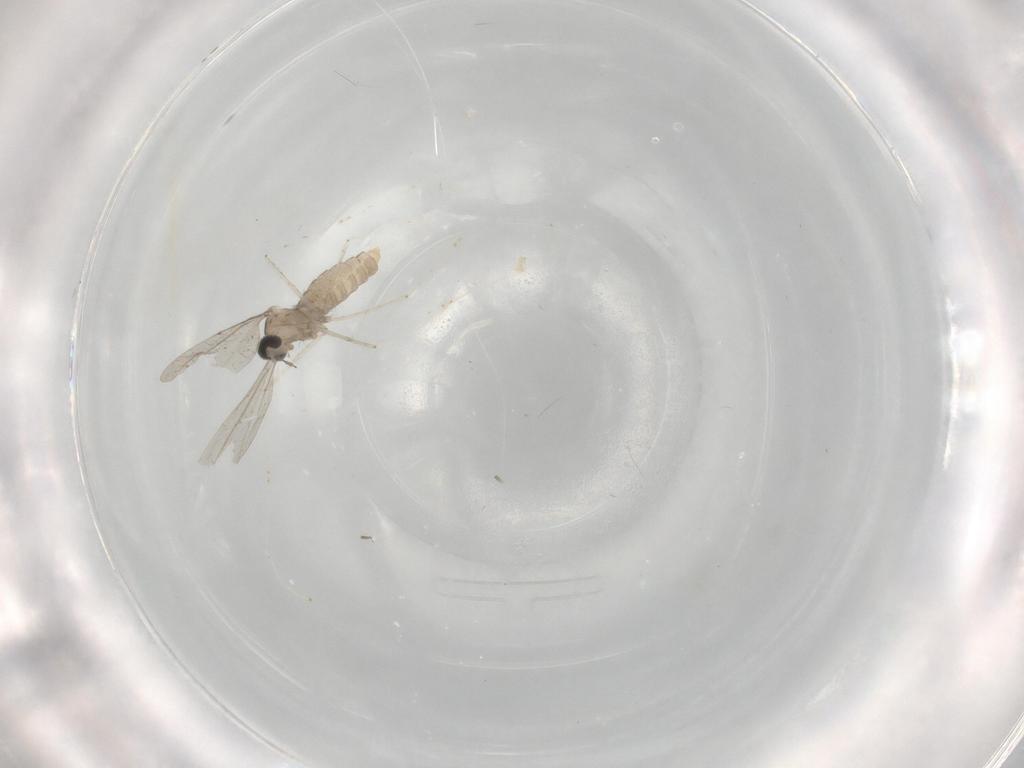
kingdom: Animalia
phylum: Arthropoda
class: Insecta
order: Diptera
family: Cecidomyiidae
